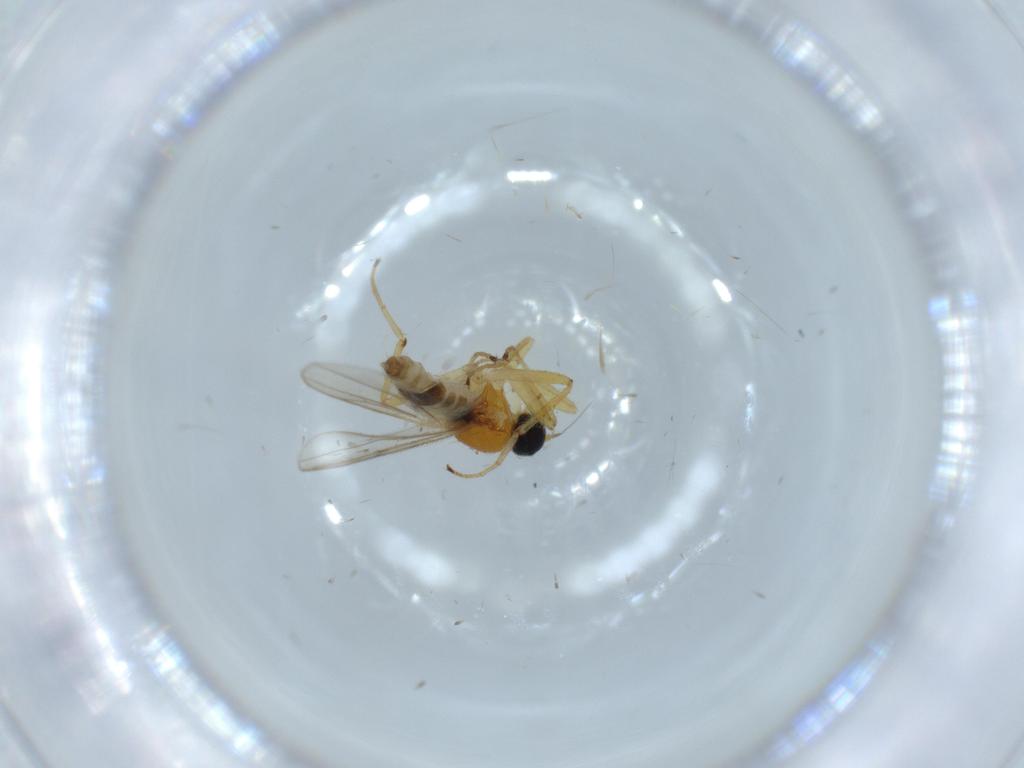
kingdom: Animalia
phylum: Arthropoda
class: Insecta
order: Diptera
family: Hybotidae
